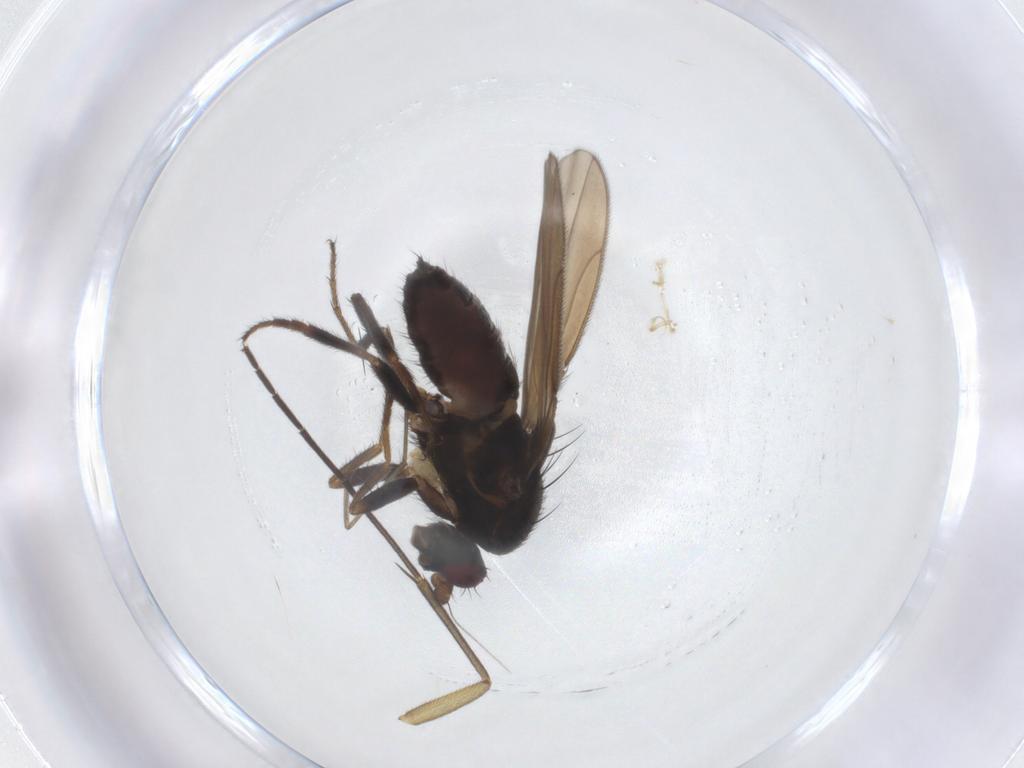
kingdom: Animalia
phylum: Arthropoda
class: Insecta
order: Diptera
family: Sphaeroceridae
